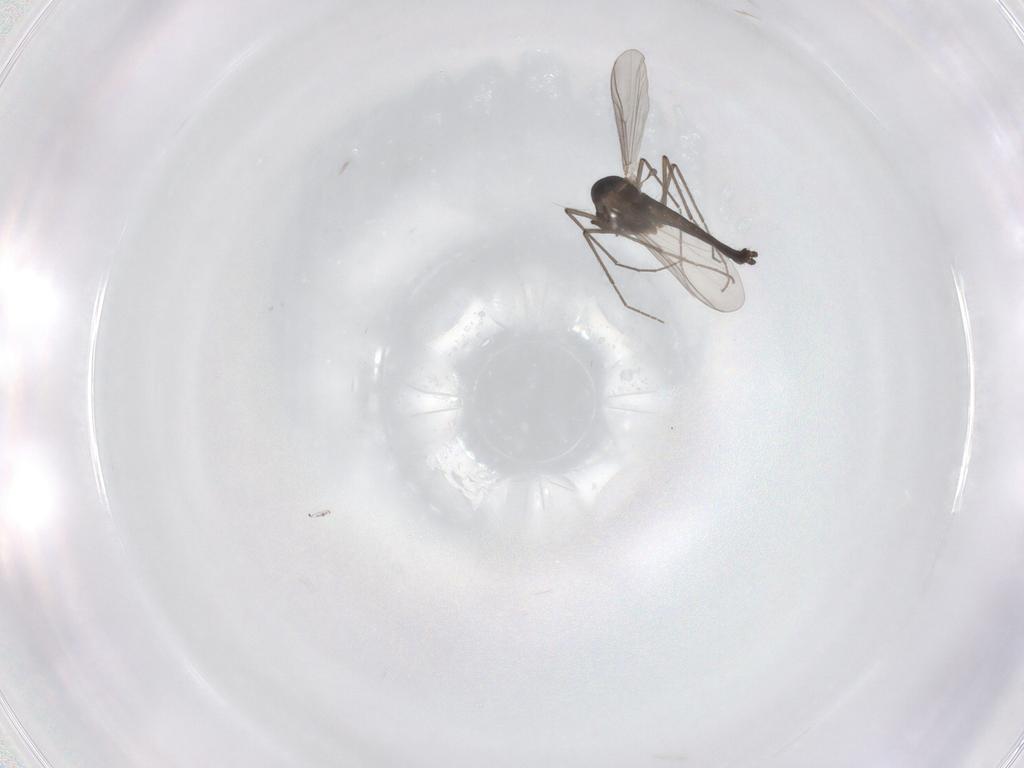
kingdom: Animalia
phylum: Arthropoda
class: Insecta
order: Diptera
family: Chironomidae
